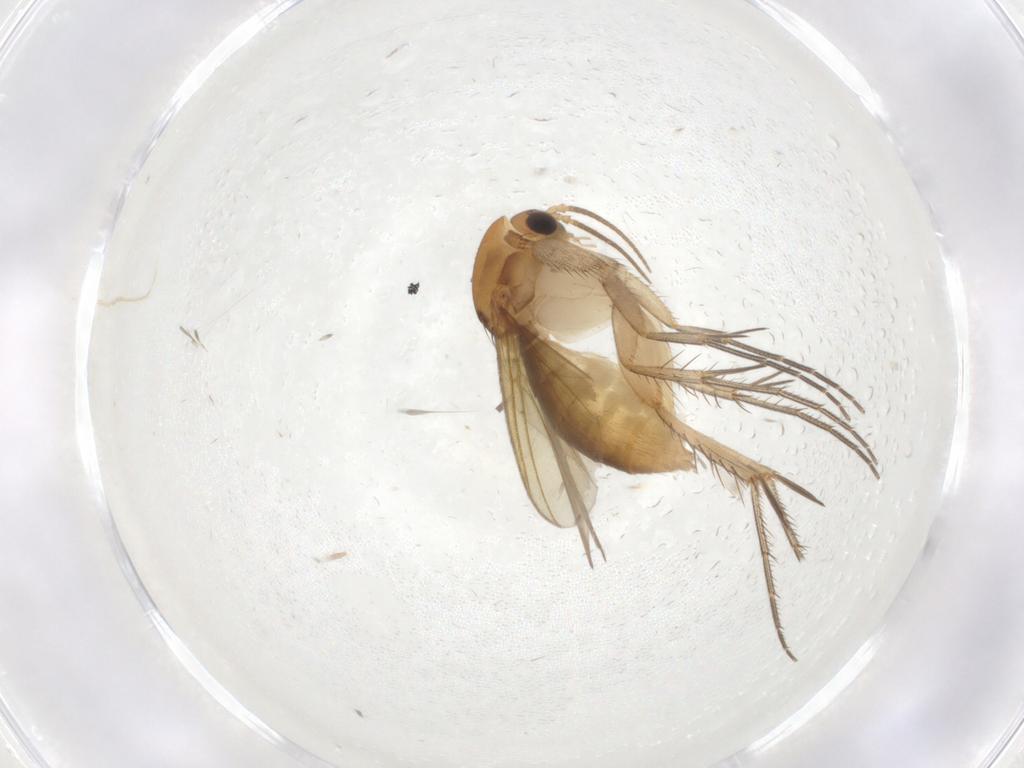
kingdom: Animalia
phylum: Arthropoda
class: Insecta
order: Diptera
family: Mycetophilidae
